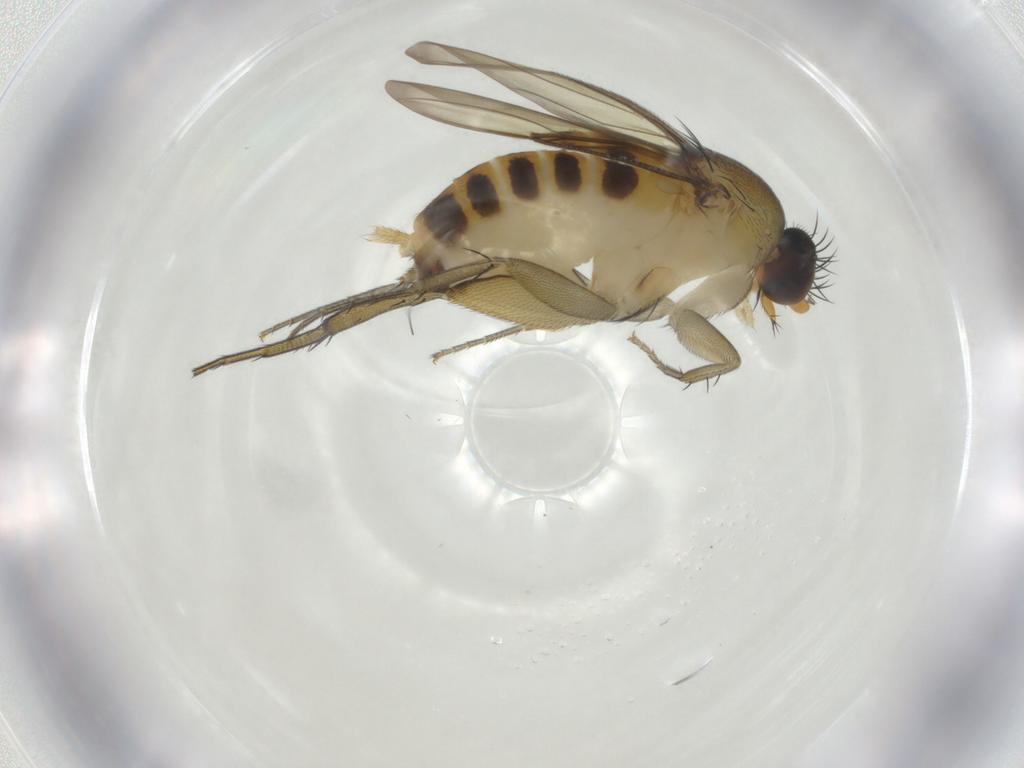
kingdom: Animalia
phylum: Arthropoda
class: Insecta
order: Diptera
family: Phoridae
